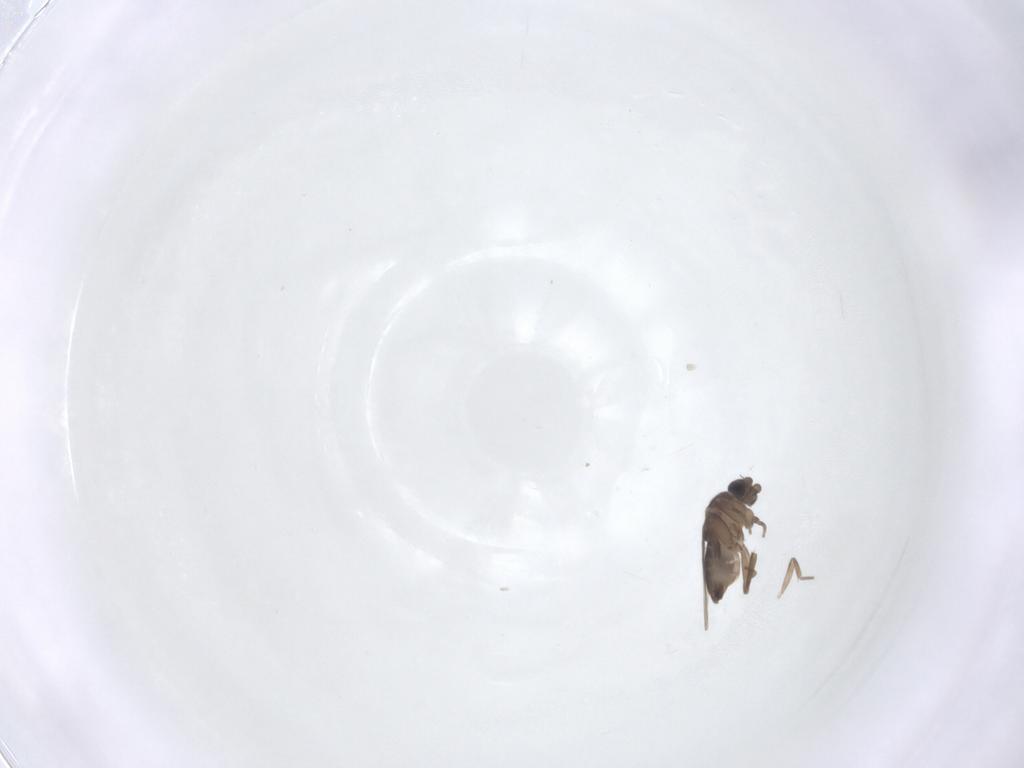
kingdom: Animalia
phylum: Arthropoda
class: Insecta
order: Diptera
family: Phoridae
